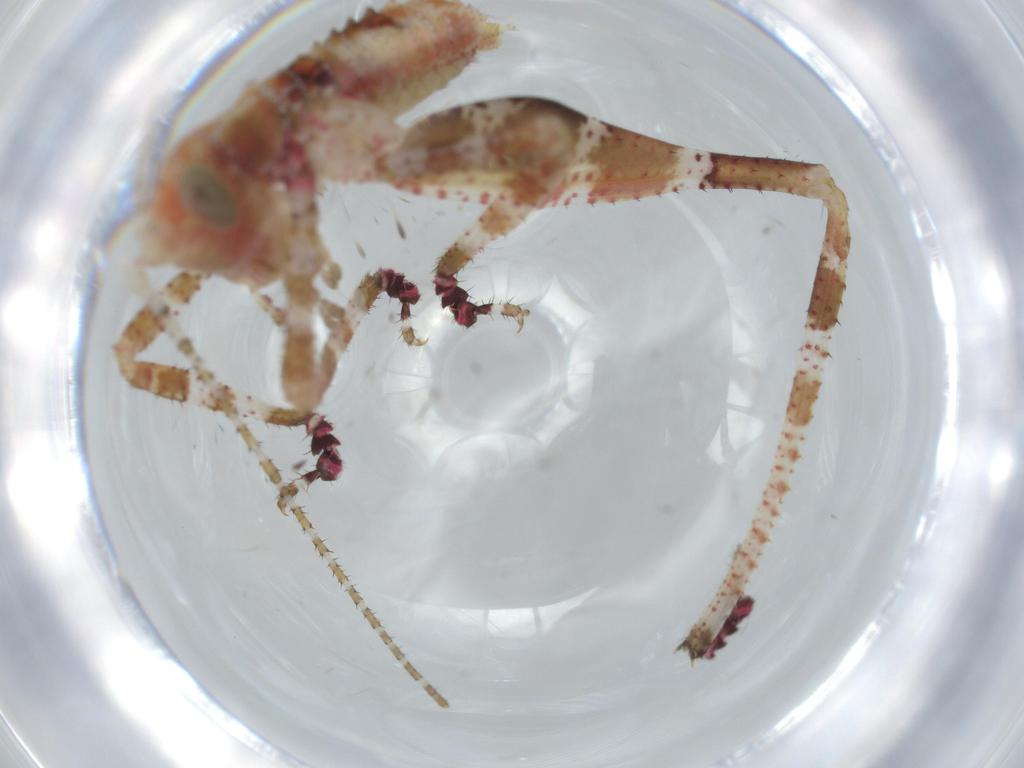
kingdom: Animalia
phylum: Arthropoda
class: Insecta
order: Orthoptera
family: Tettigoniidae
